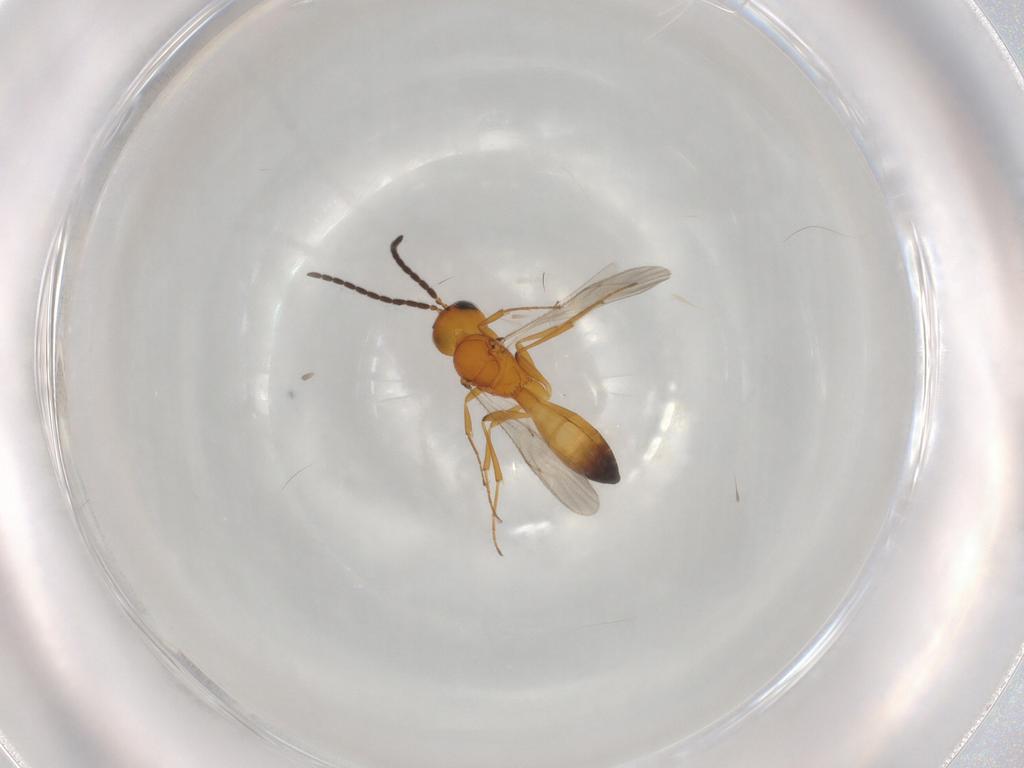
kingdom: Animalia
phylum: Arthropoda
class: Insecta
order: Hymenoptera
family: Scelionidae
